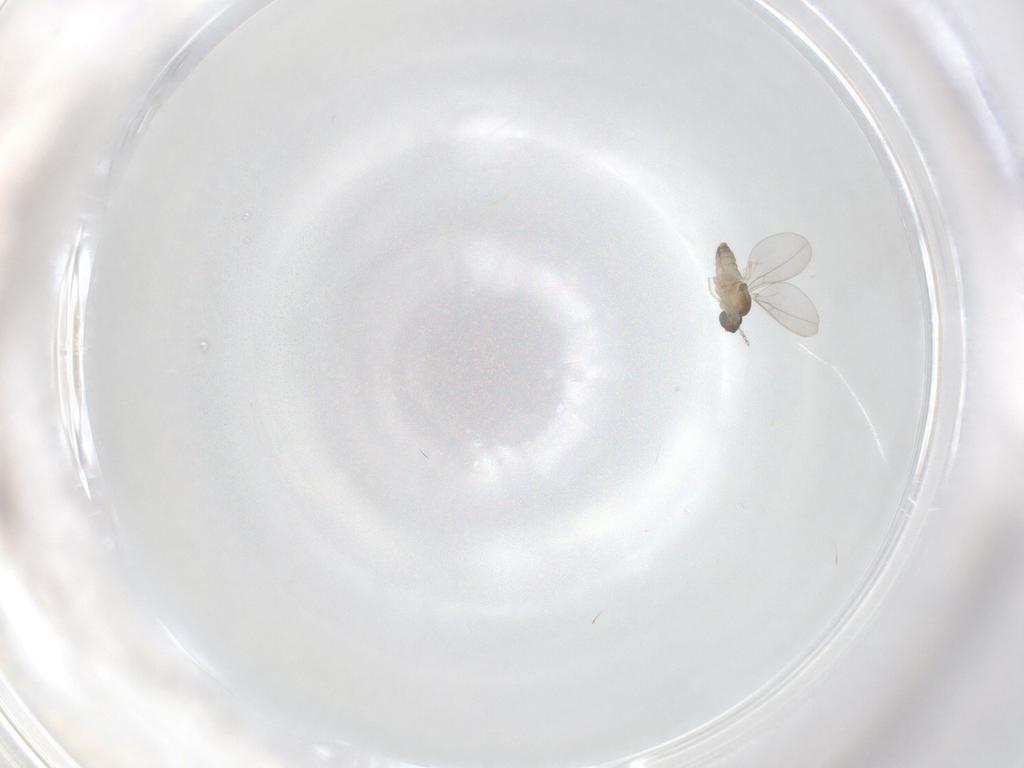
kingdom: Animalia
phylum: Arthropoda
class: Insecta
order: Diptera
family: Cecidomyiidae
